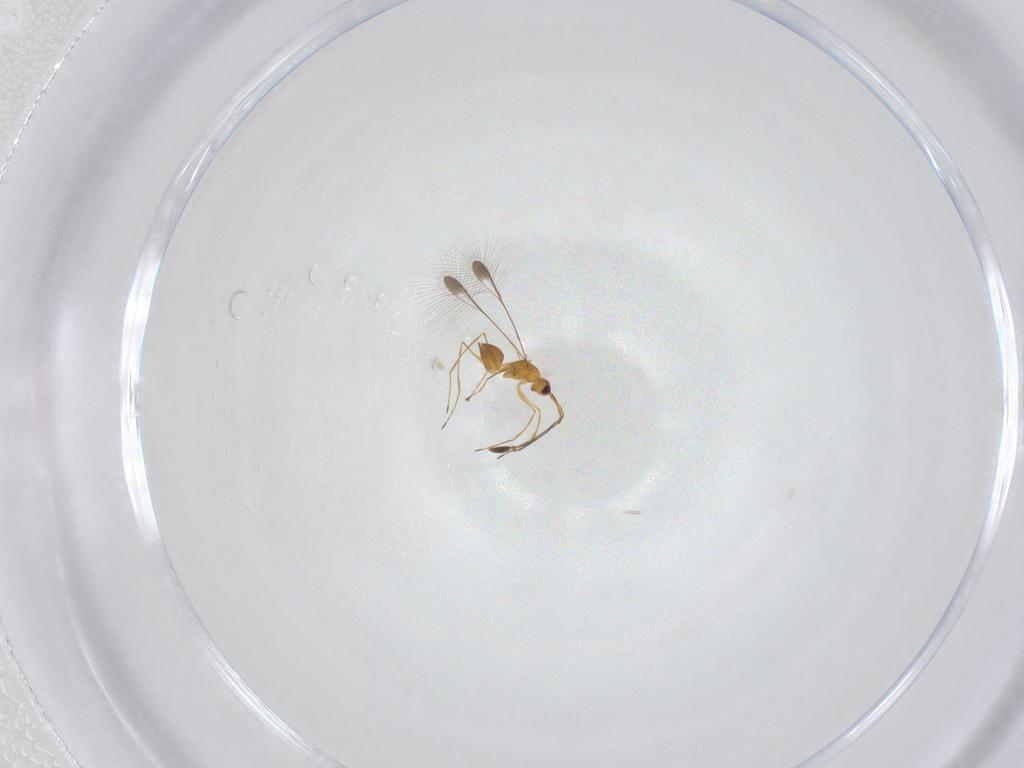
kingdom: Animalia
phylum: Arthropoda
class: Insecta
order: Hymenoptera
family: Mymaridae
